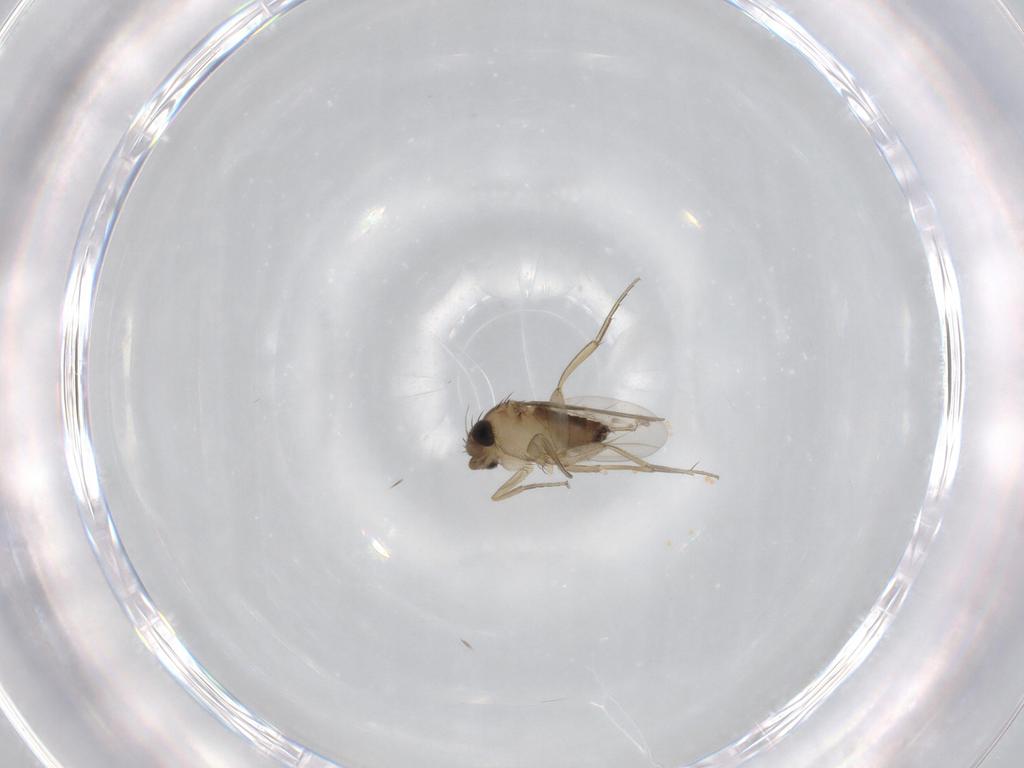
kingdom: Animalia
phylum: Arthropoda
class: Insecta
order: Diptera
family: Phoridae
